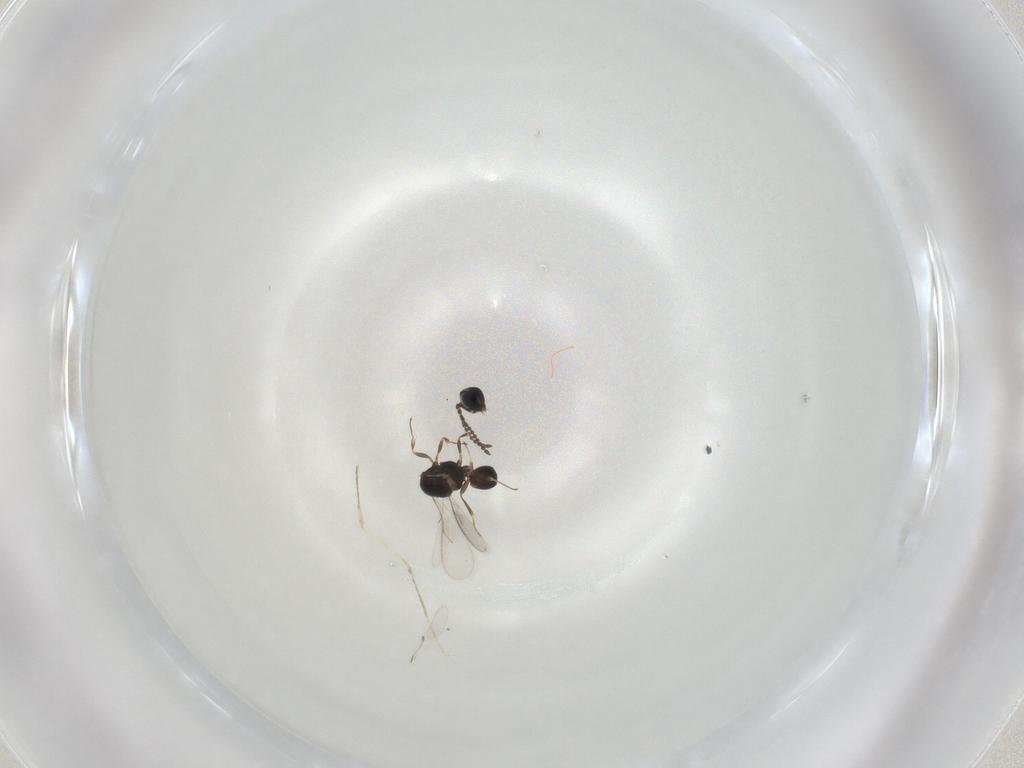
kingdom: Animalia
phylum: Arthropoda
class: Insecta
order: Hymenoptera
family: Scelionidae
